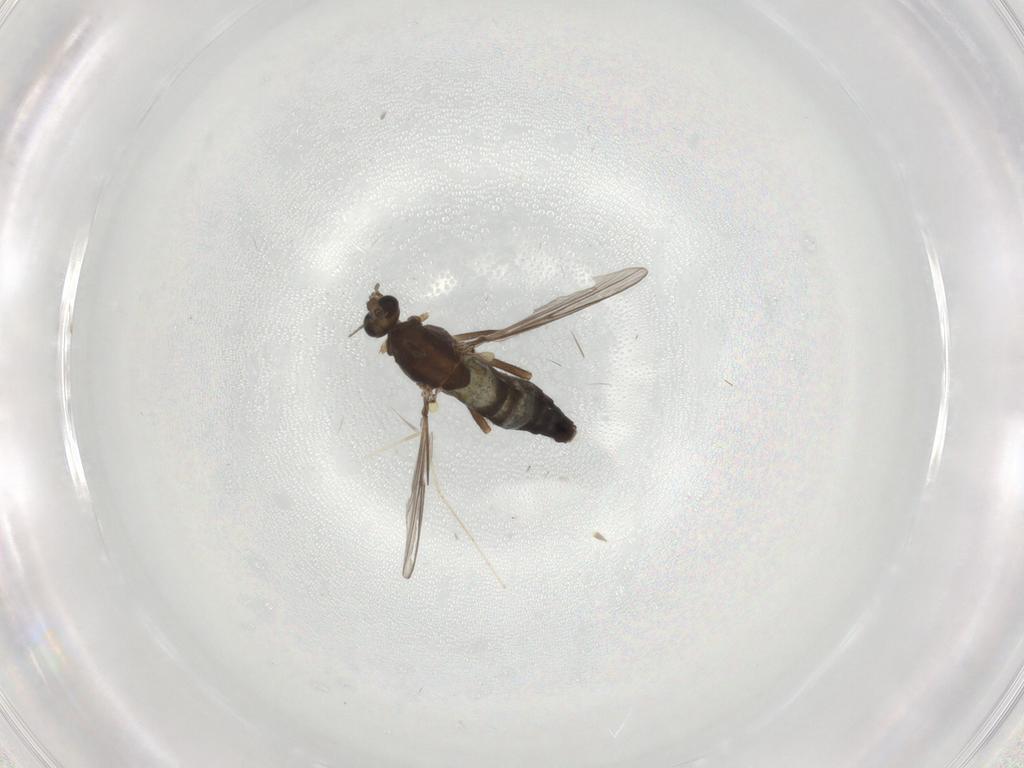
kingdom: Animalia
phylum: Arthropoda
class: Insecta
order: Diptera
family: Chironomidae
